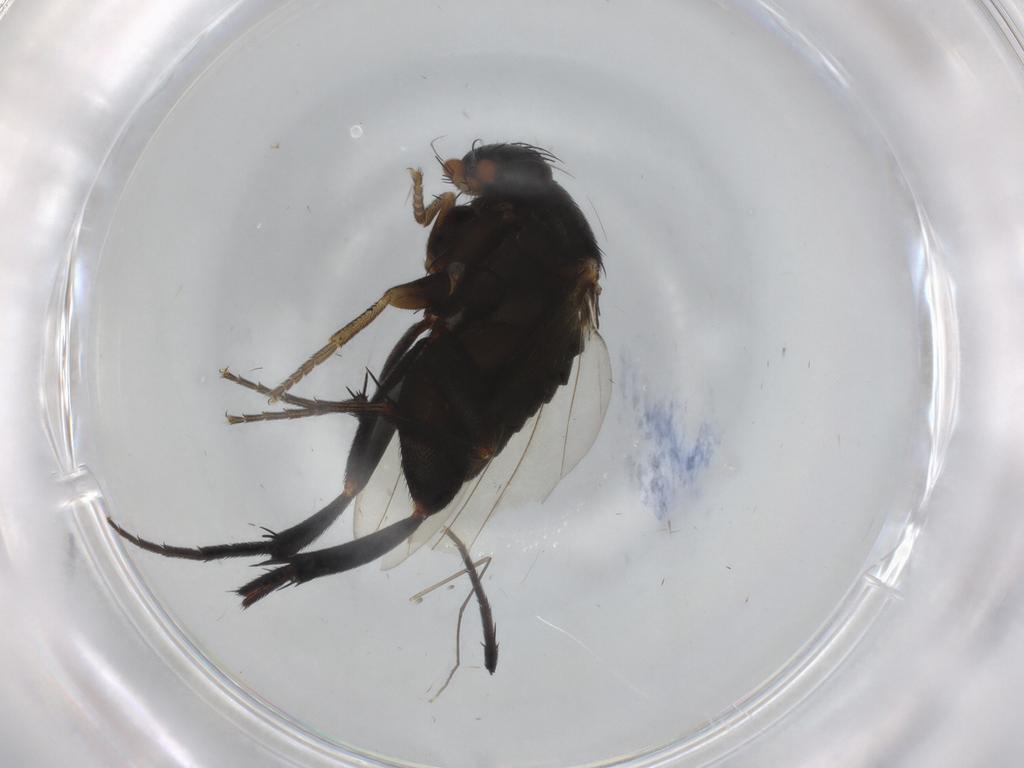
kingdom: Animalia
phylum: Arthropoda
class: Insecta
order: Diptera
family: Phoridae
